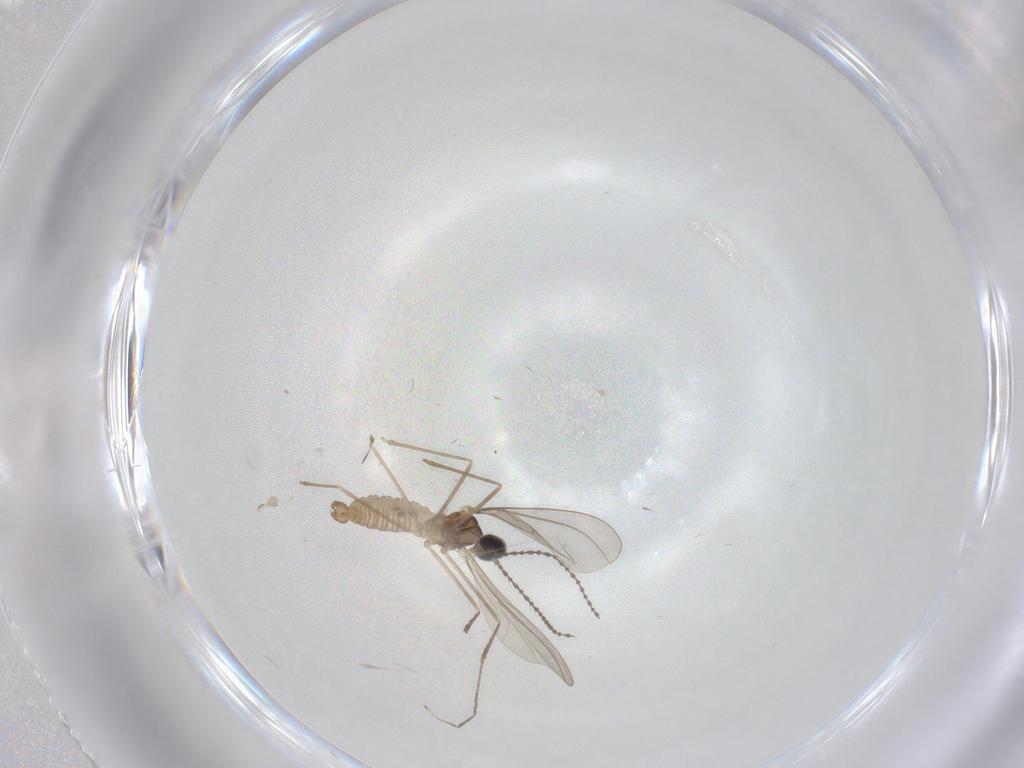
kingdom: Animalia
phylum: Arthropoda
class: Insecta
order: Diptera
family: Cecidomyiidae
